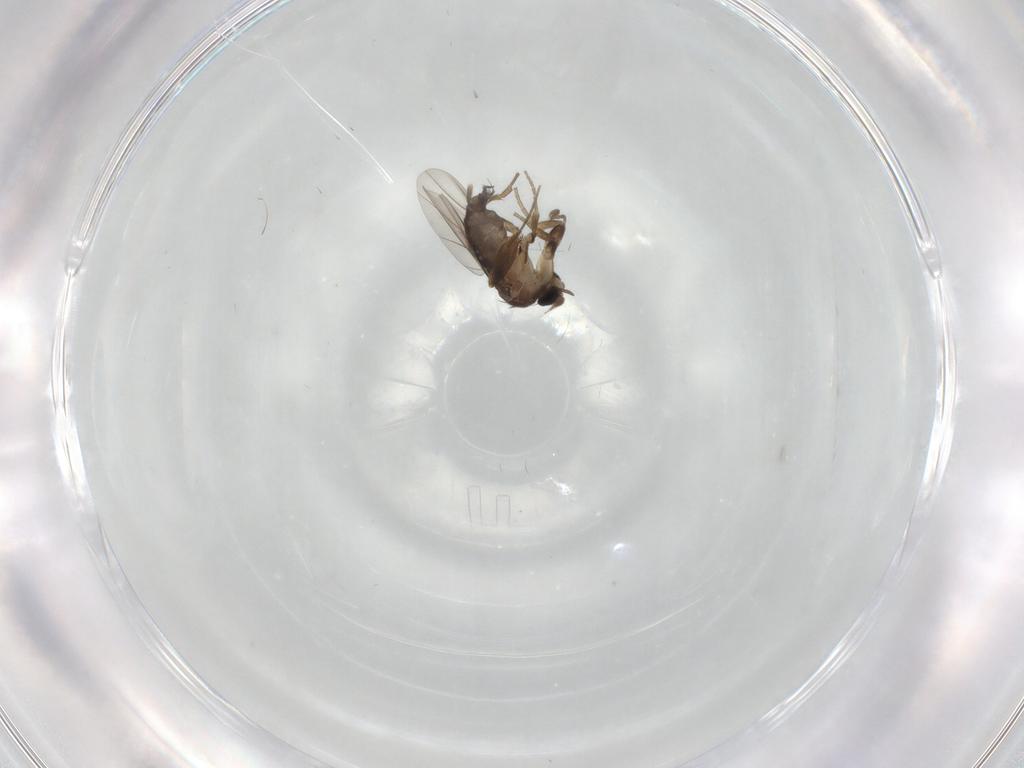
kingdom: Animalia
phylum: Arthropoda
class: Insecta
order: Diptera
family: Phoridae
